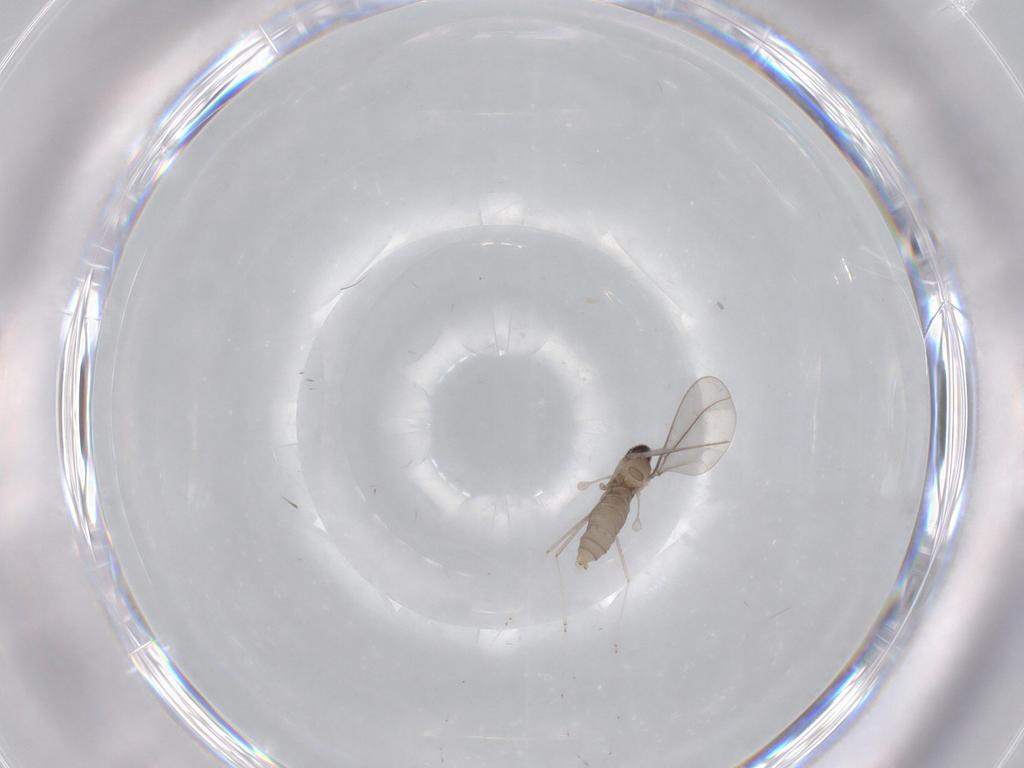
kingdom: Animalia
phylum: Arthropoda
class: Insecta
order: Diptera
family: Cecidomyiidae
